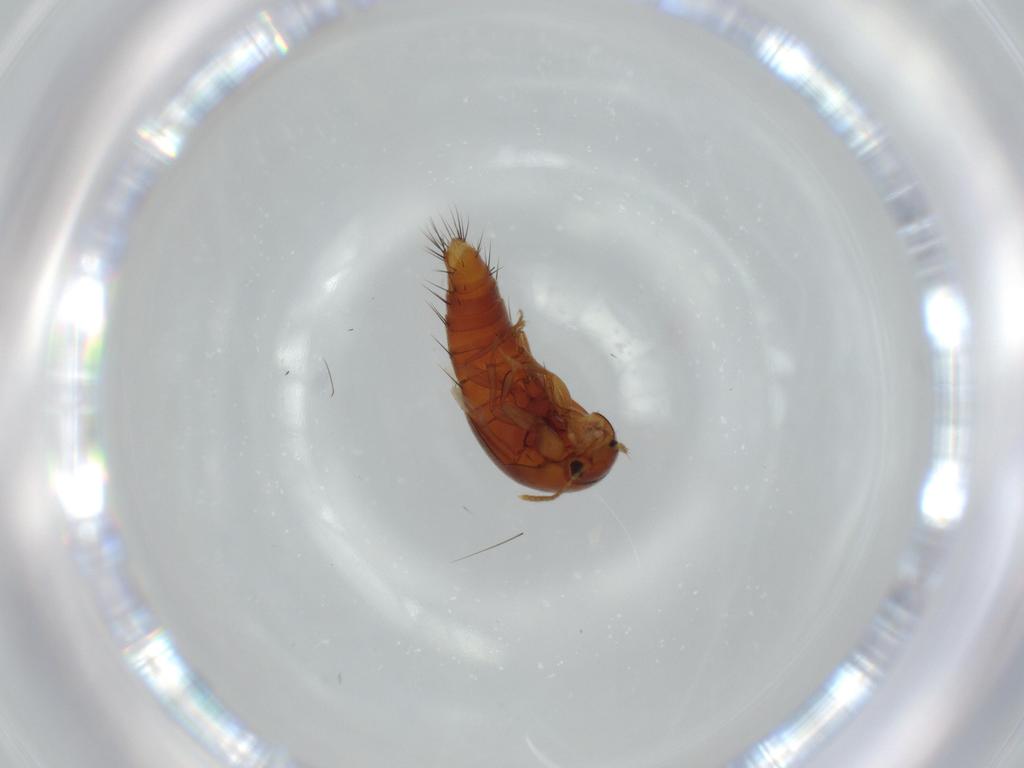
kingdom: Animalia
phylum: Arthropoda
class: Insecta
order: Coleoptera
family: Staphylinidae
